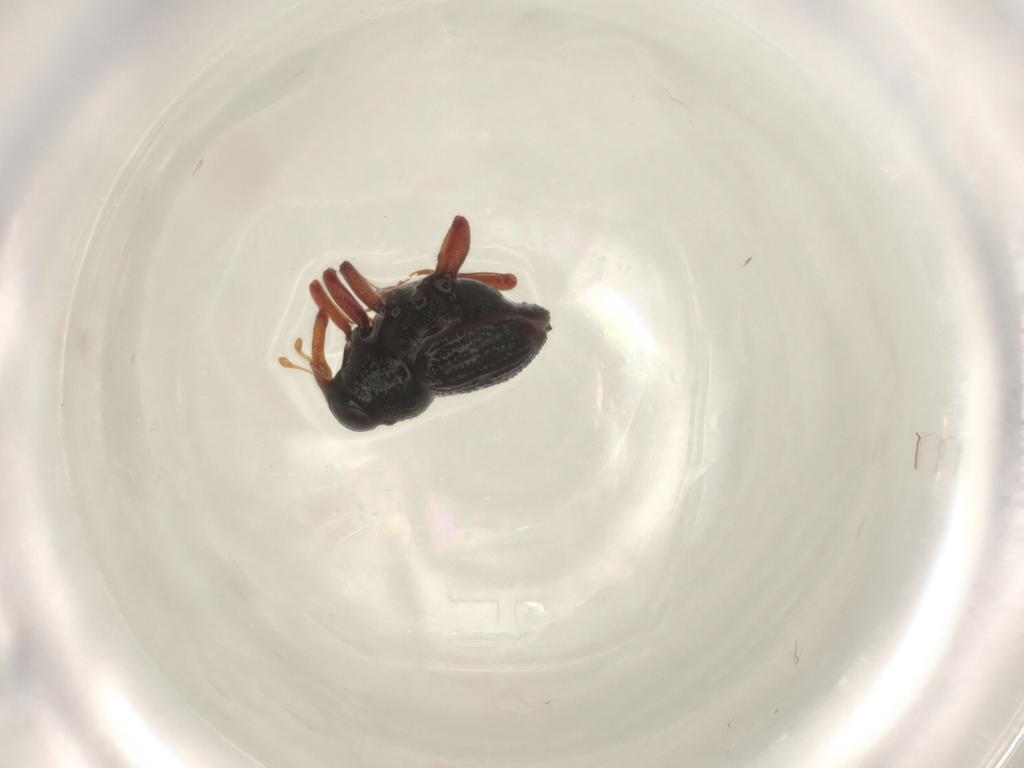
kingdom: Animalia
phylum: Arthropoda
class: Insecta
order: Coleoptera
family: Curculionidae
